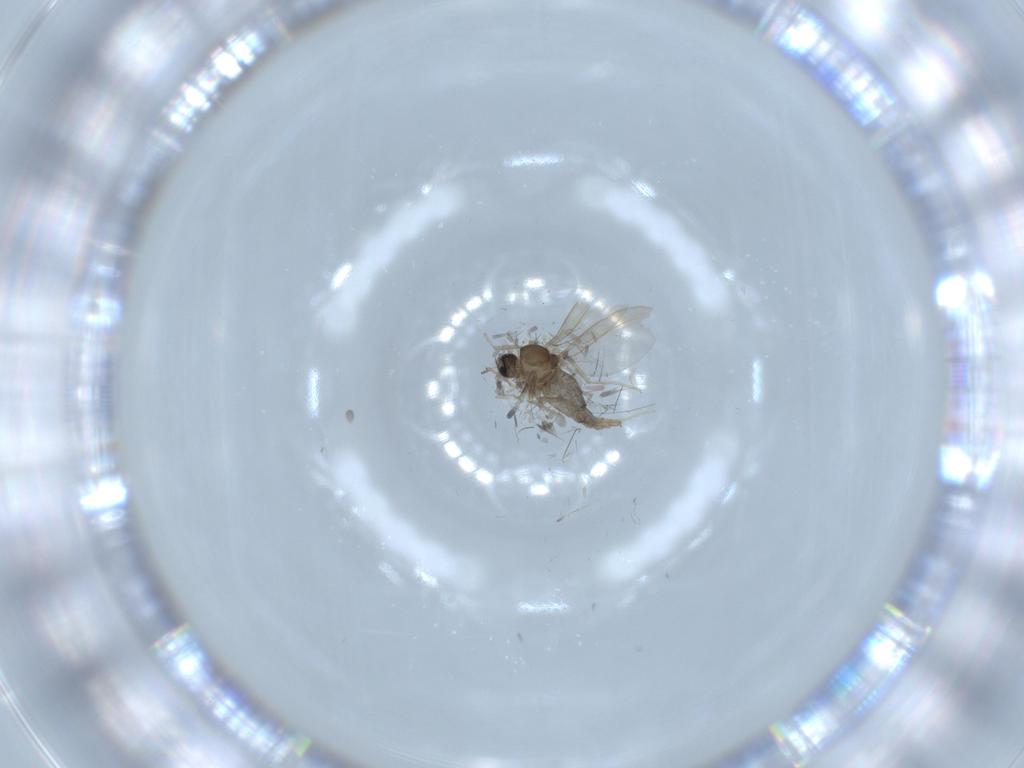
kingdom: Animalia
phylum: Arthropoda
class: Insecta
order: Diptera
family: Cecidomyiidae
